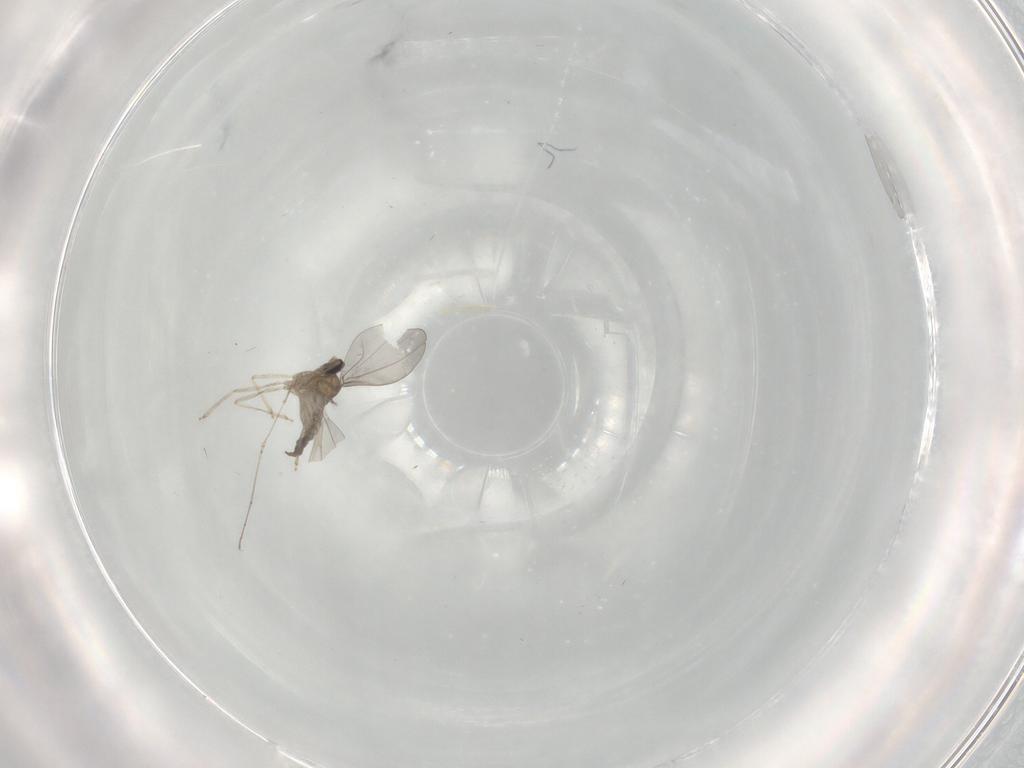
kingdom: Animalia
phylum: Arthropoda
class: Insecta
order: Diptera
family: Cecidomyiidae
